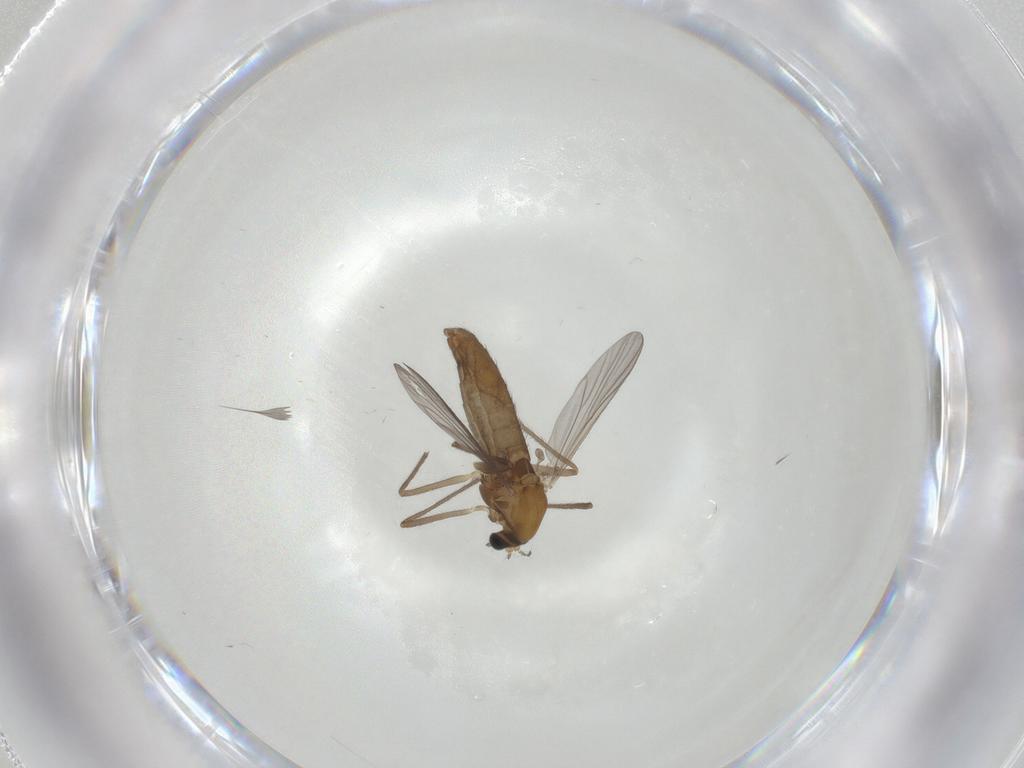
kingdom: Animalia
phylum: Arthropoda
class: Insecta
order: Diptera
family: Chironomidae
